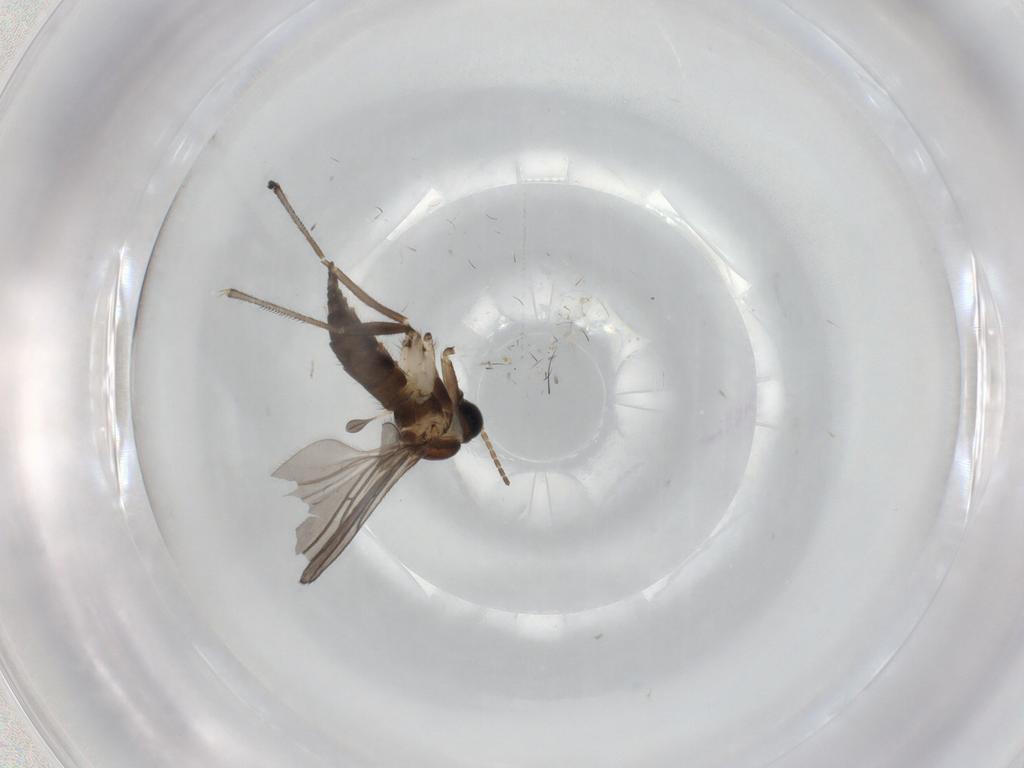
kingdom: Animalia
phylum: Arthropoda
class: Insecta
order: Diptera
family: Sciaridae
